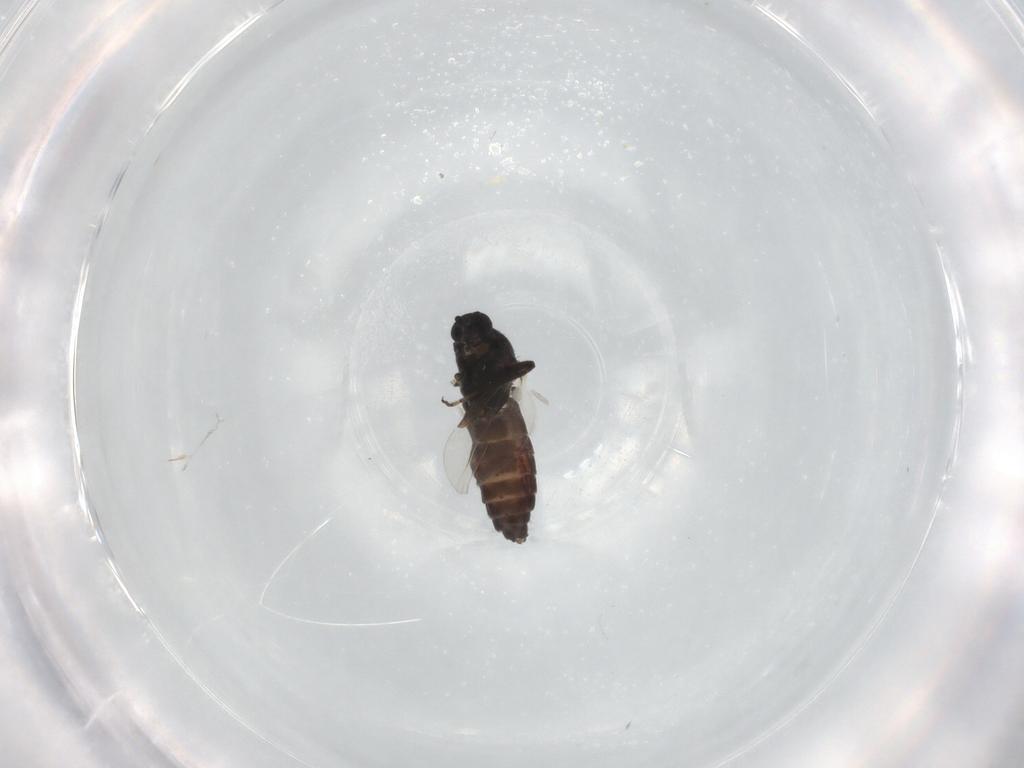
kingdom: Animalia
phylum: Arthropoda
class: Insecta
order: Diptera
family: Ceratopogonidae
